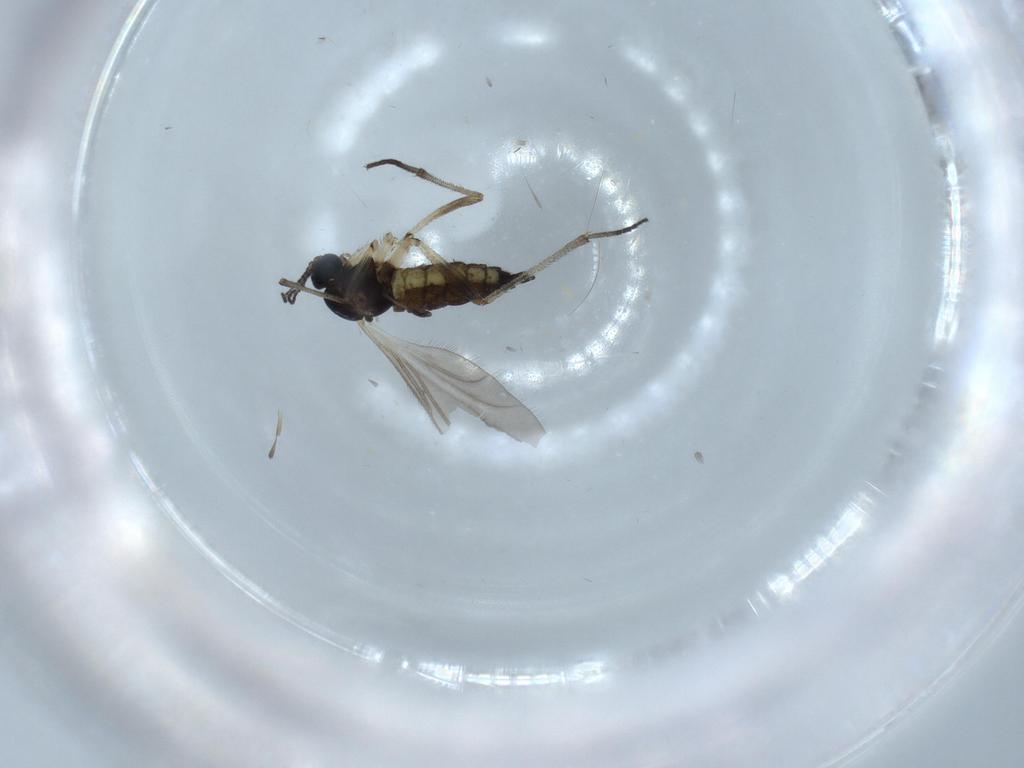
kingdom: Animalia
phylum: Arthropoda
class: Insecta
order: Diptera
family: Sciaridae
